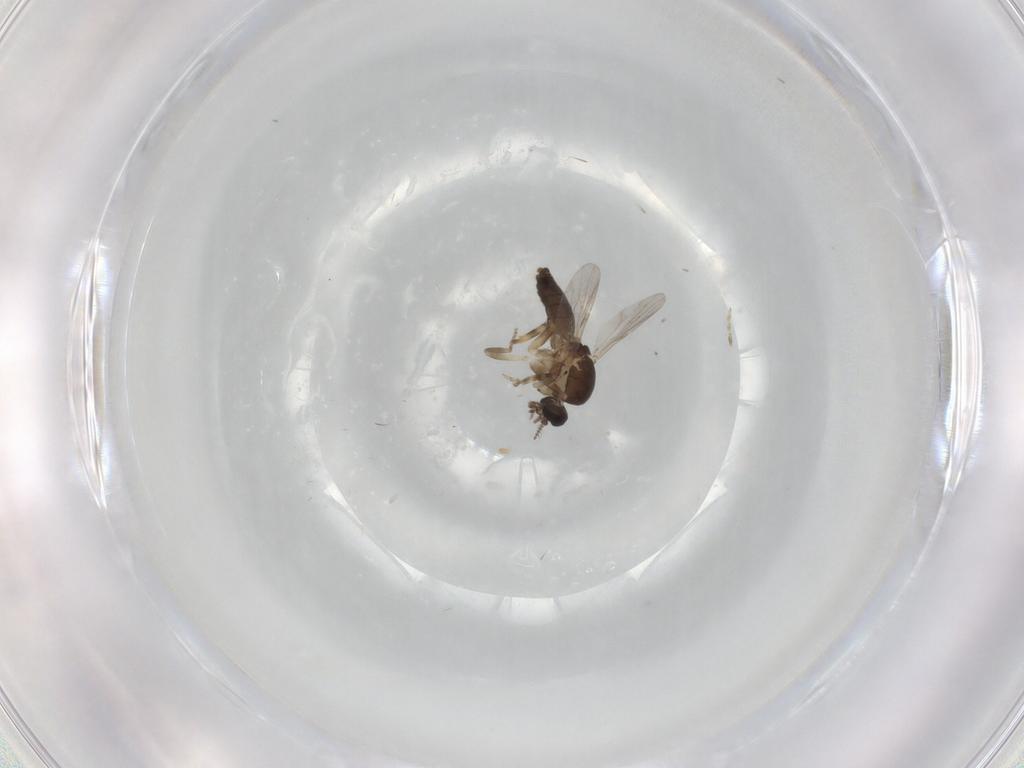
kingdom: Animalia
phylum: Arthropoda
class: Insecta
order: Diptera
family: Ceratopogonidae
